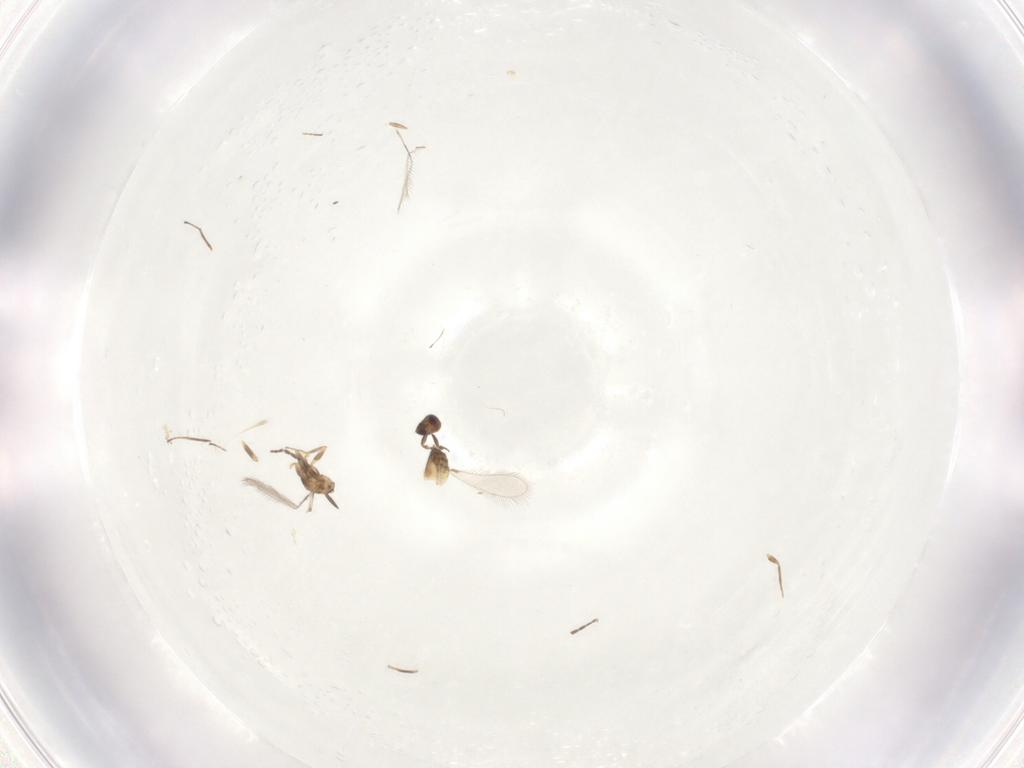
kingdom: Animalia
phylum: Arthropoda
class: Insecta
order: Hymenoptera
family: Mymaridae
